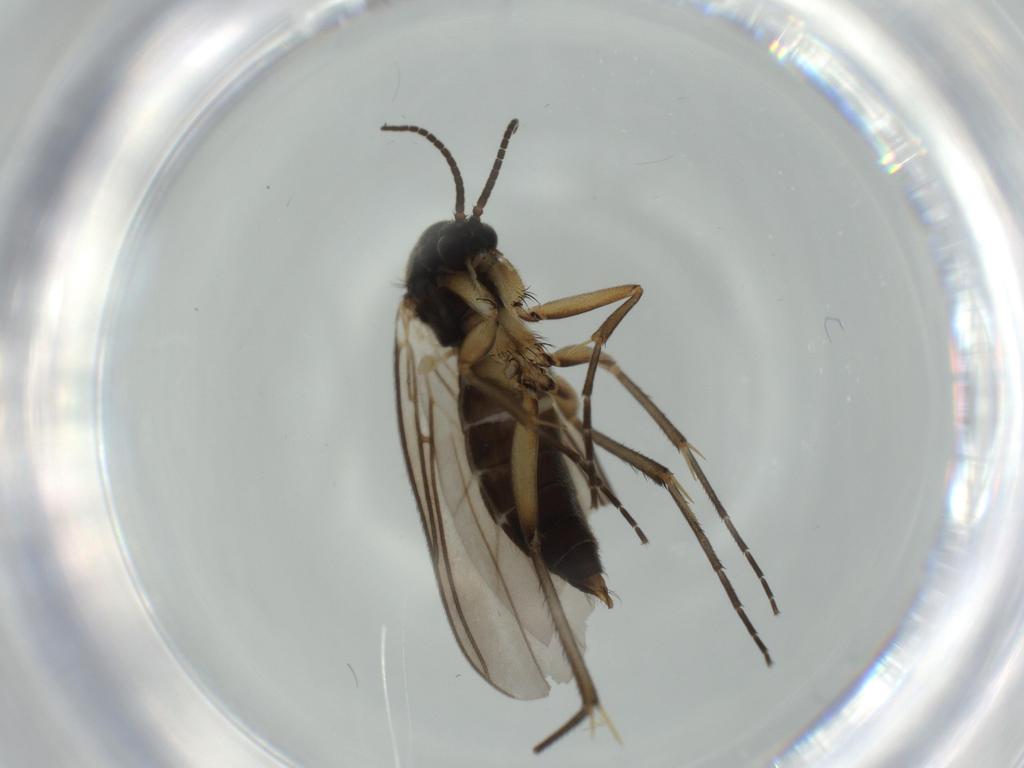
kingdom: Animalia
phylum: Arthropoda
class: Insecta
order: Diptera
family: Mycetophilidae
